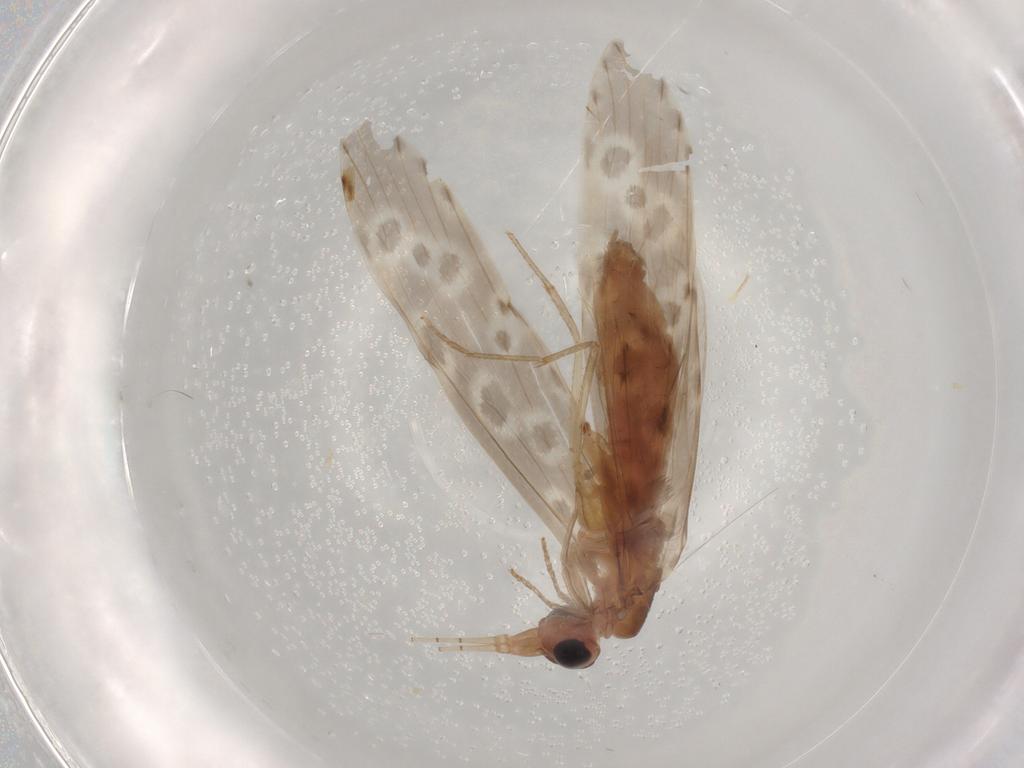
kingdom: Animalia
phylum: Arthropoda
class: Insecta
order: Trichoptera
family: Leptoceridae
